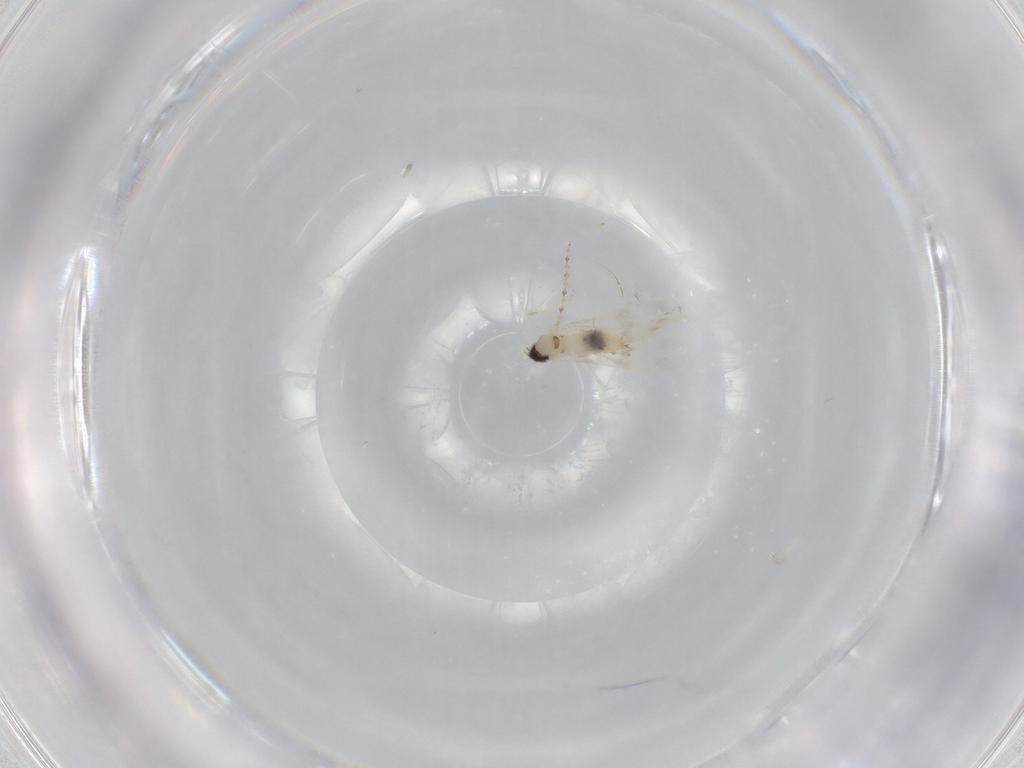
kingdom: Animalia
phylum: Arthropoda
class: Insecta
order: Diptera
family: Cecidomyiidae
